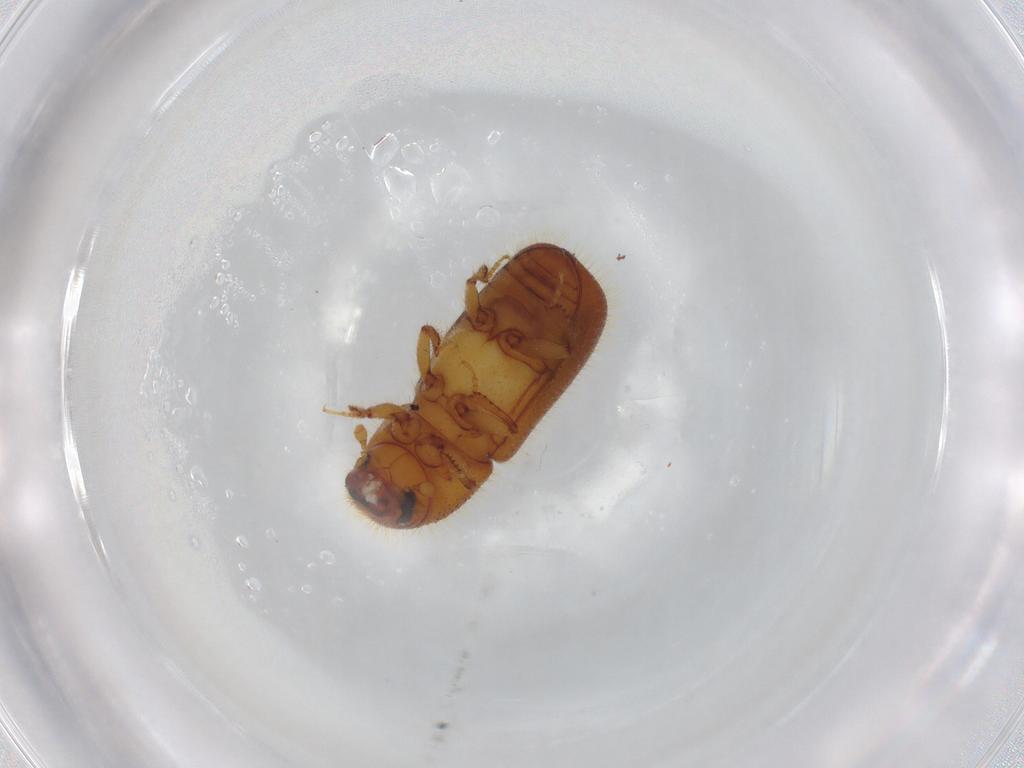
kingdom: Animalia
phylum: Arthropoda
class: Insecta
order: Coleoptera
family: Curculionidae
